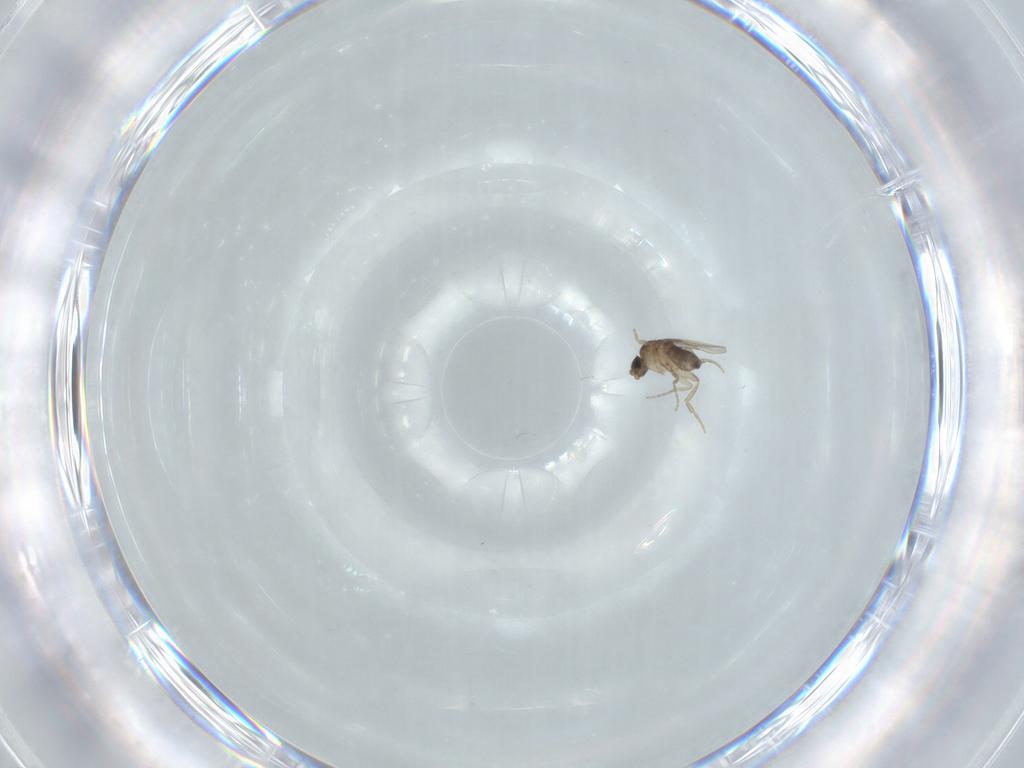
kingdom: Animalia
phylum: Arthropoda
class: Insecta
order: Diptera
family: Phoridae
